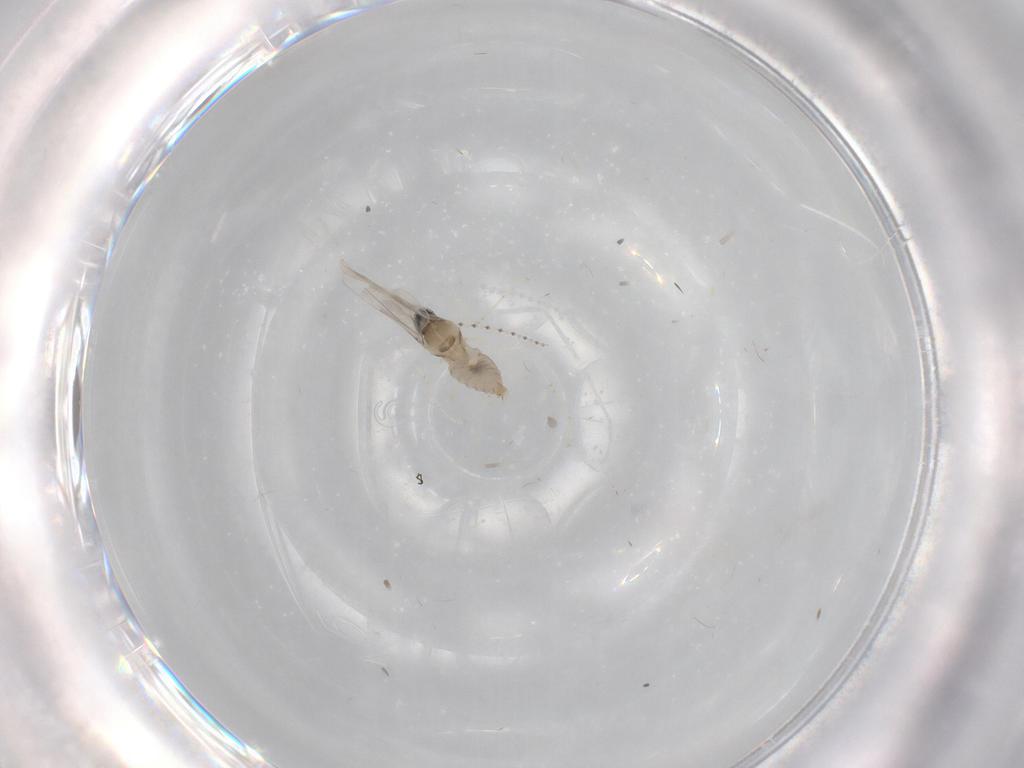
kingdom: Animalia
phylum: Arthropoda
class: Insecta
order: Diptera
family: Cecidomyiidae
